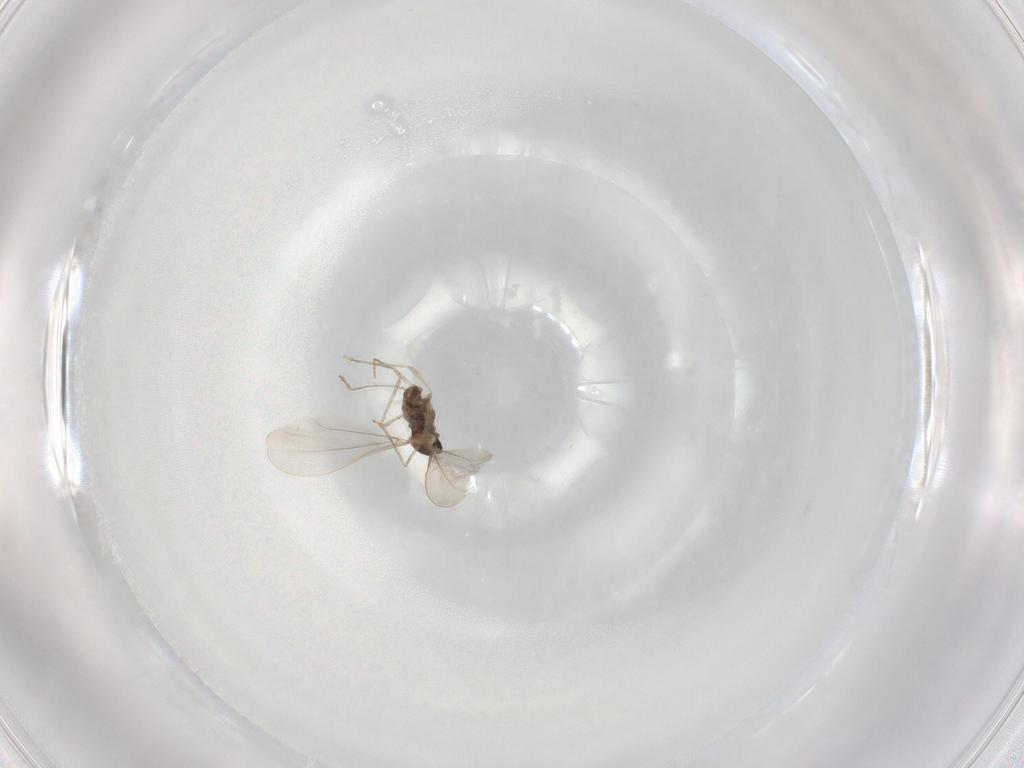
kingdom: Animalia
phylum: Arthropoda
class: Insecta
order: Diptera
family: Cecidomyiidae
